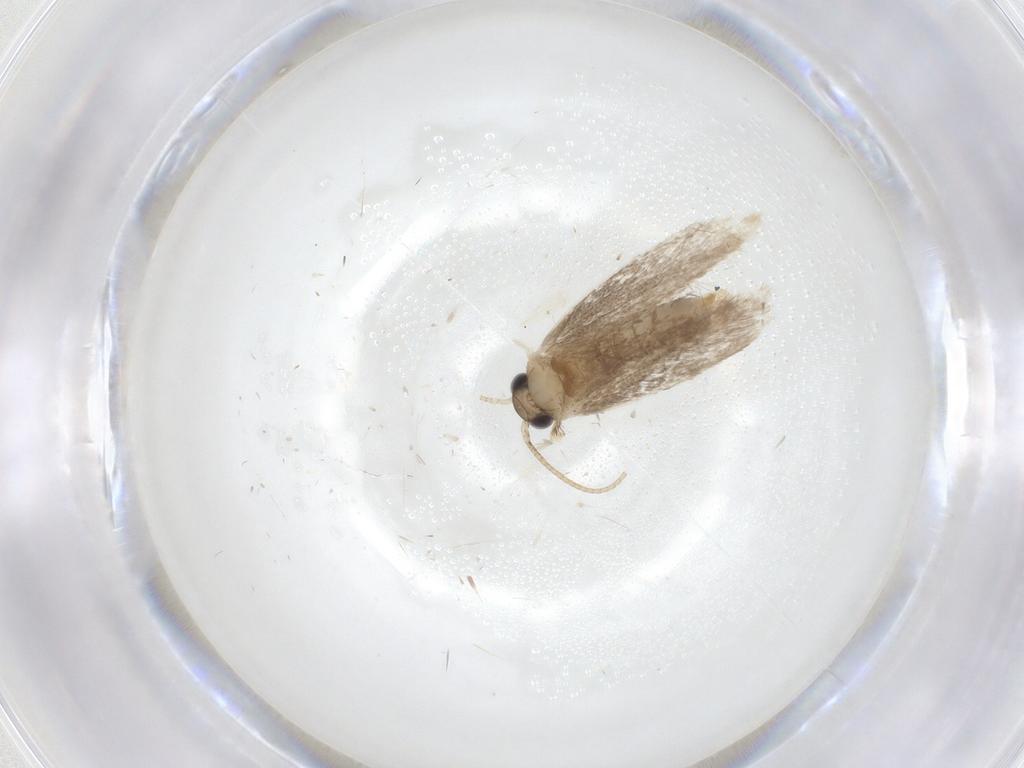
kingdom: Animalia
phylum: Arthropoda
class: Insecta
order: Lepidoptera
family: Dryadaulidae
